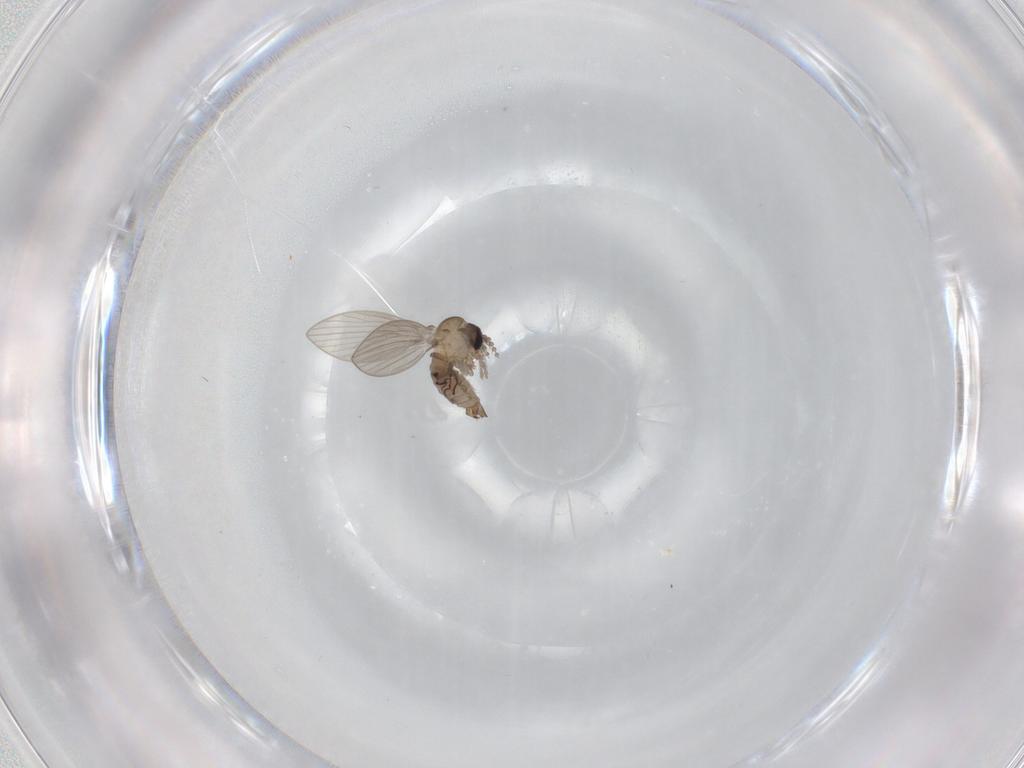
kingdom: Animalia
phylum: Arthropoda
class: Insecta
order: Diptera
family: Psychodidae
